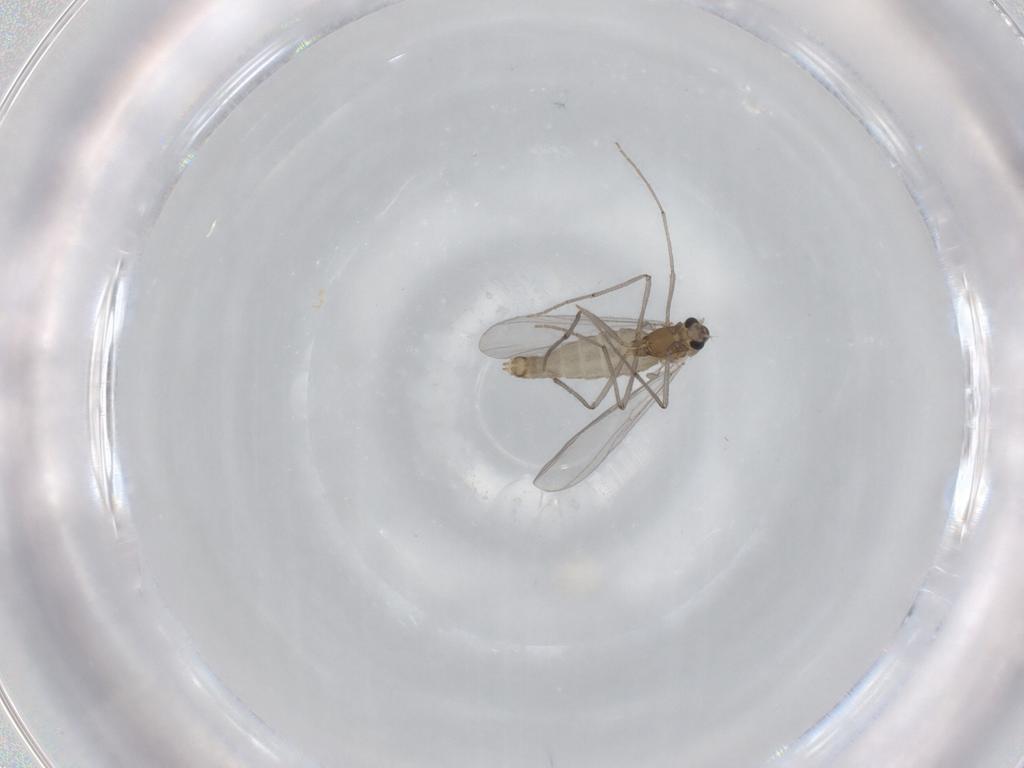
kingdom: Animalia
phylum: Arthropoda
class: Insecta
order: Diptera
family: Chironomidae
